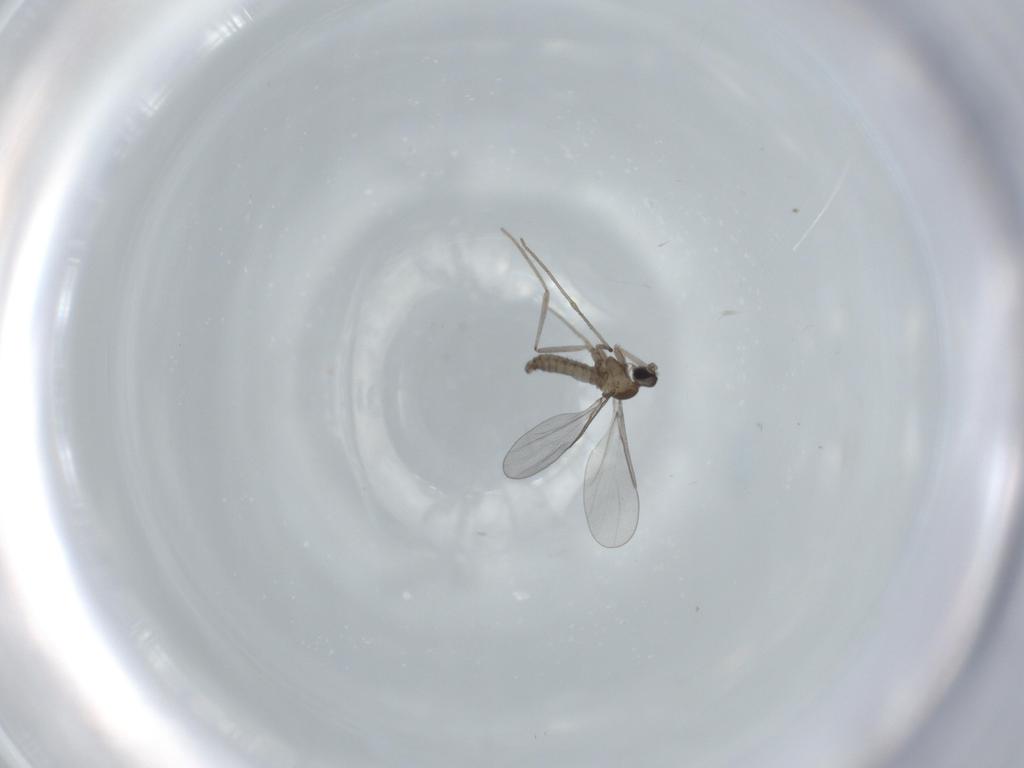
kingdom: Animalia
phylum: Arthropoda
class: Insecta
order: Diptera
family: Cecidomyiidae
